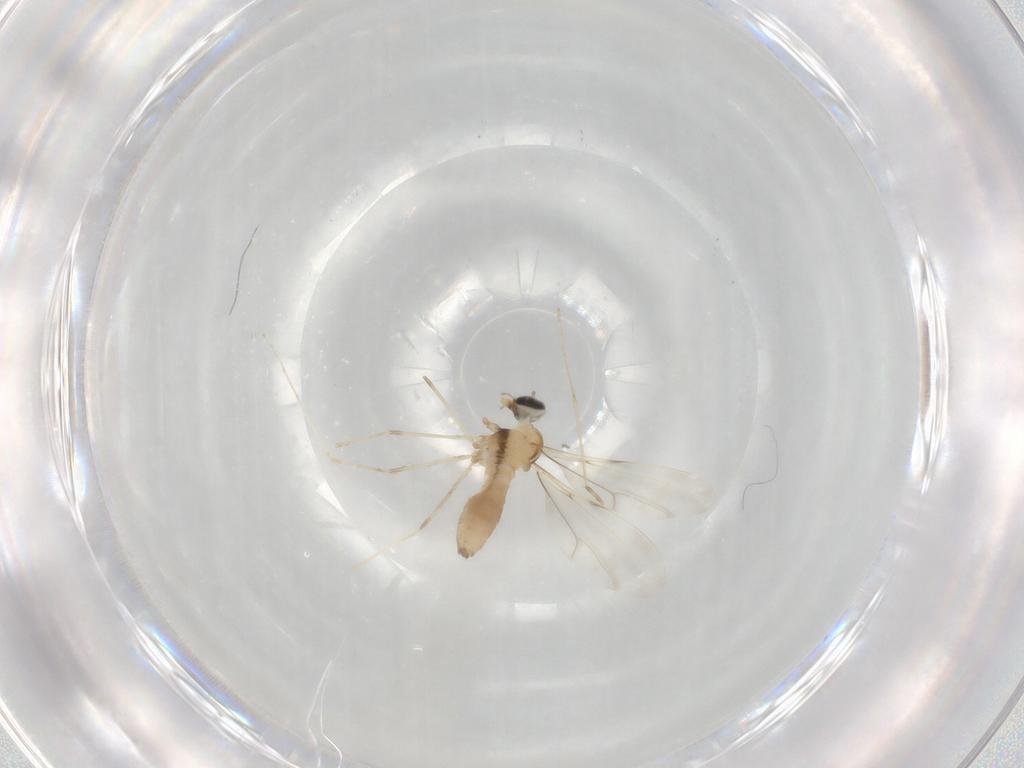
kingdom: Animalia
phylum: Arthropoda
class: Insecta
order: Diptera
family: Cecidomyiidae
